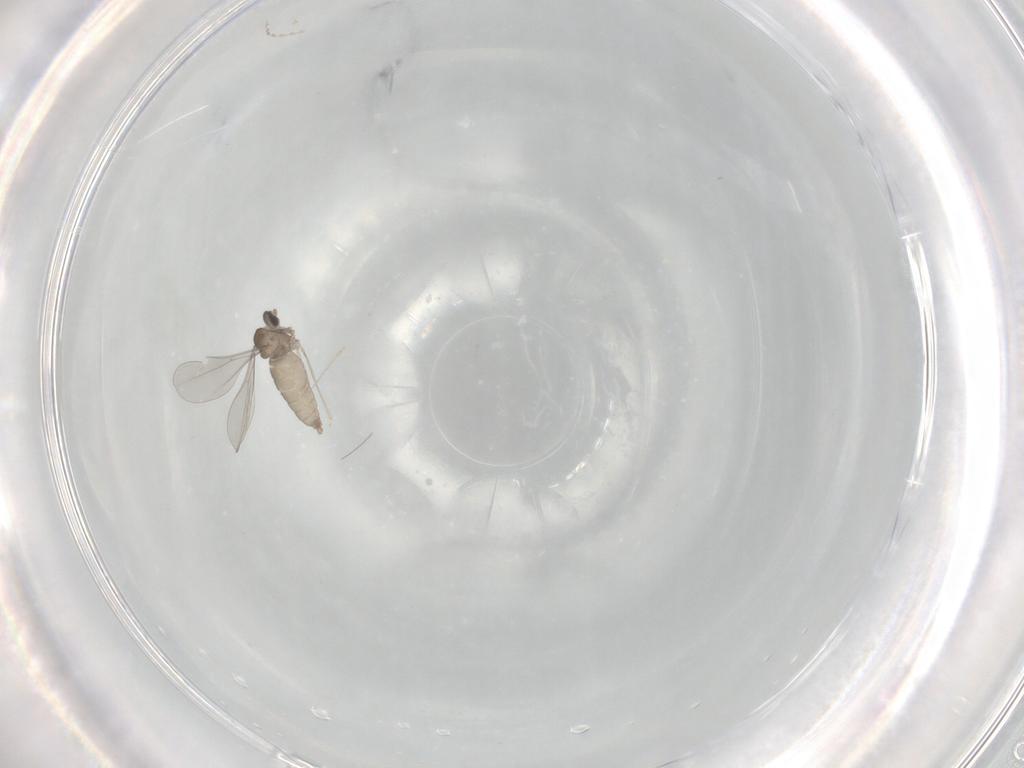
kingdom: Animalia
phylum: Arthropoda
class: Insecta
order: Diptera
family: Cecidomyiidae
